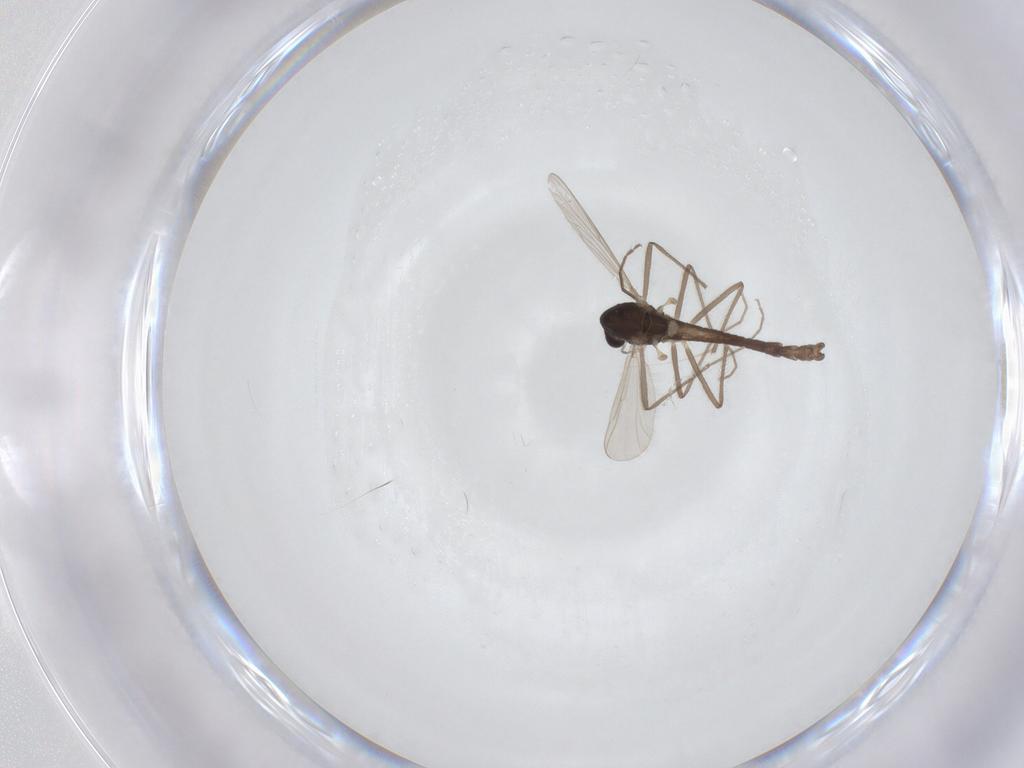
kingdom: Animalia
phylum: Arthropoda
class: Insecta
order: Diptera
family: Chironomidae
